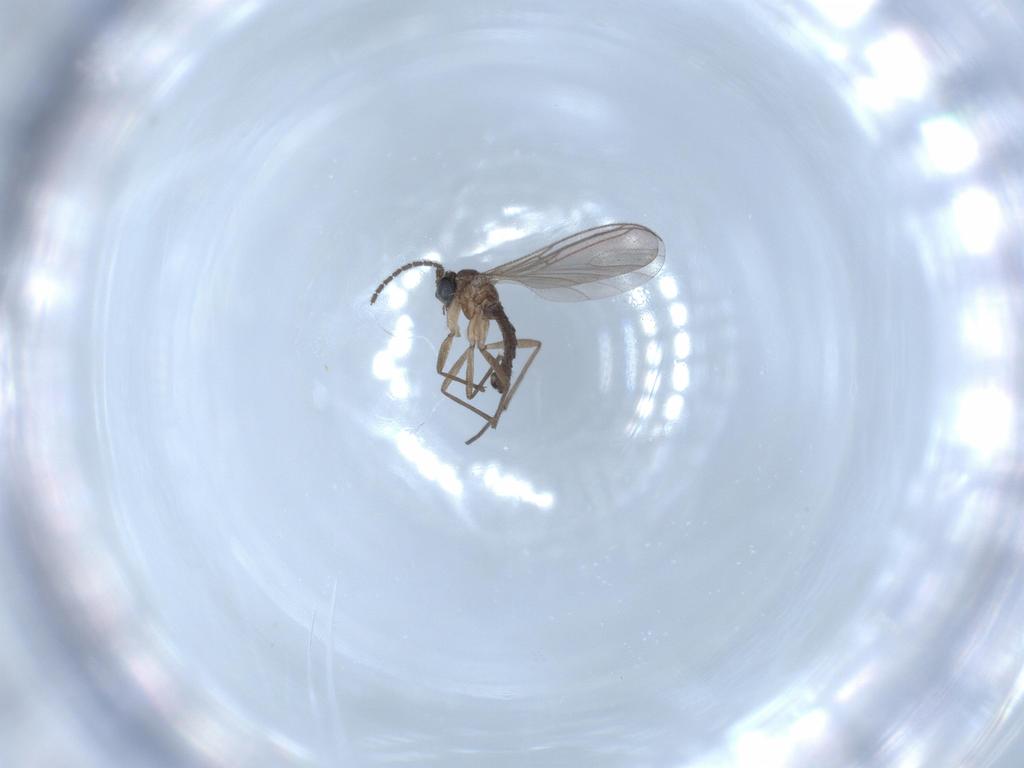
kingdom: Animalia
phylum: Arthropoda
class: Insecta
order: Diptera
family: Sciaridae
